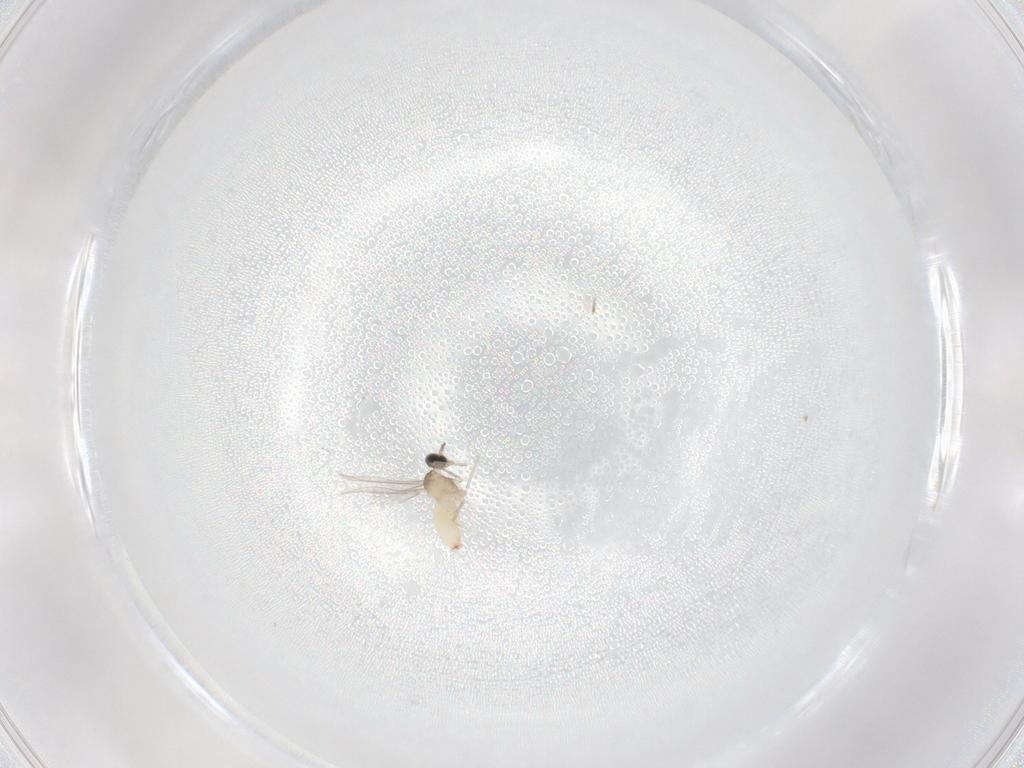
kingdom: Animalia
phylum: Arthropoda
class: Insecta
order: Diptera
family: Cecidomyiidae
